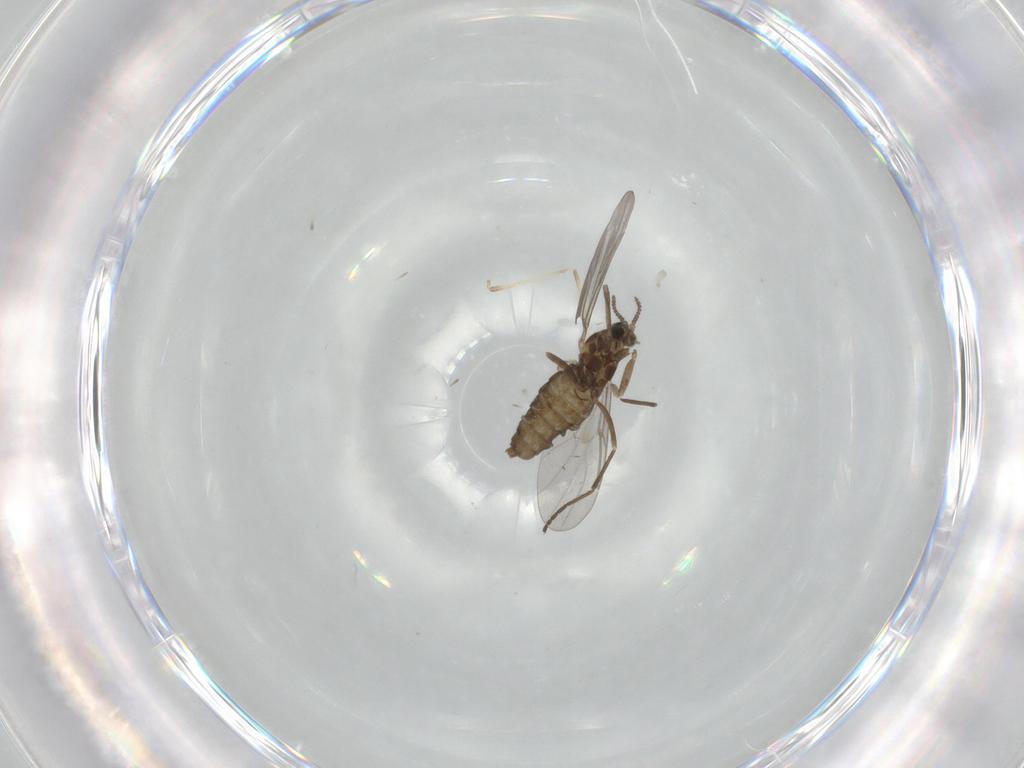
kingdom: Animalia
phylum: Arthropoda
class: Insecta
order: Diptera
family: Cecidomyiidae
